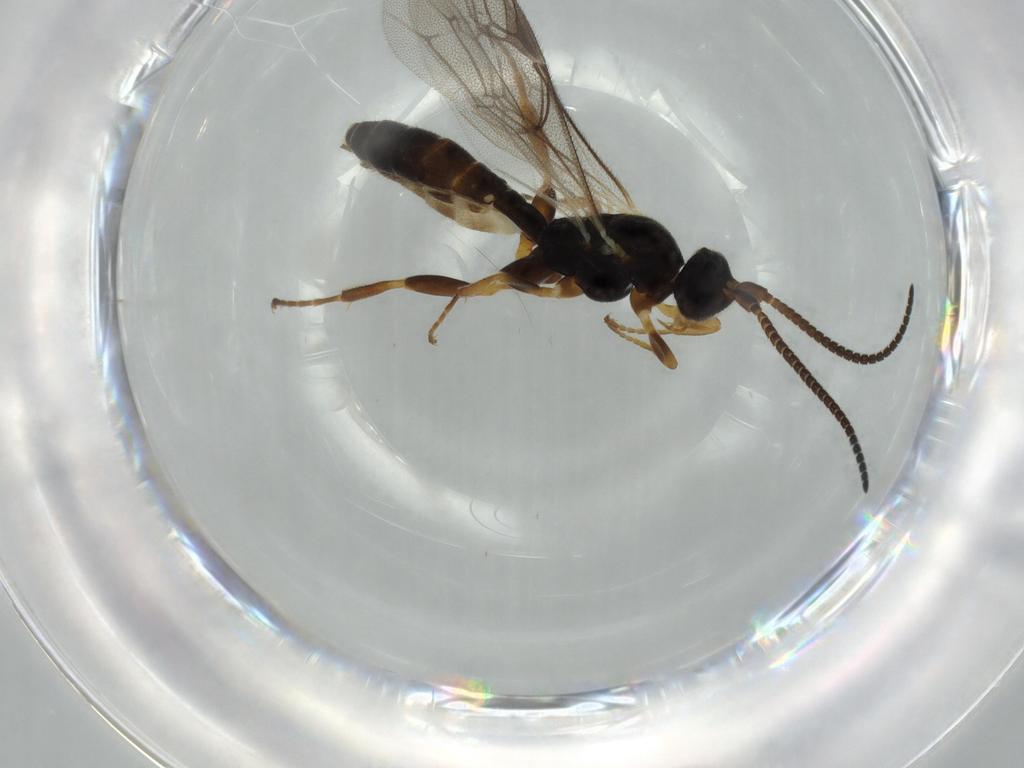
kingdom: Animalia
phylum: Arthropoda
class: Insecta
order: Hymenoptera
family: Ichneumonidae
